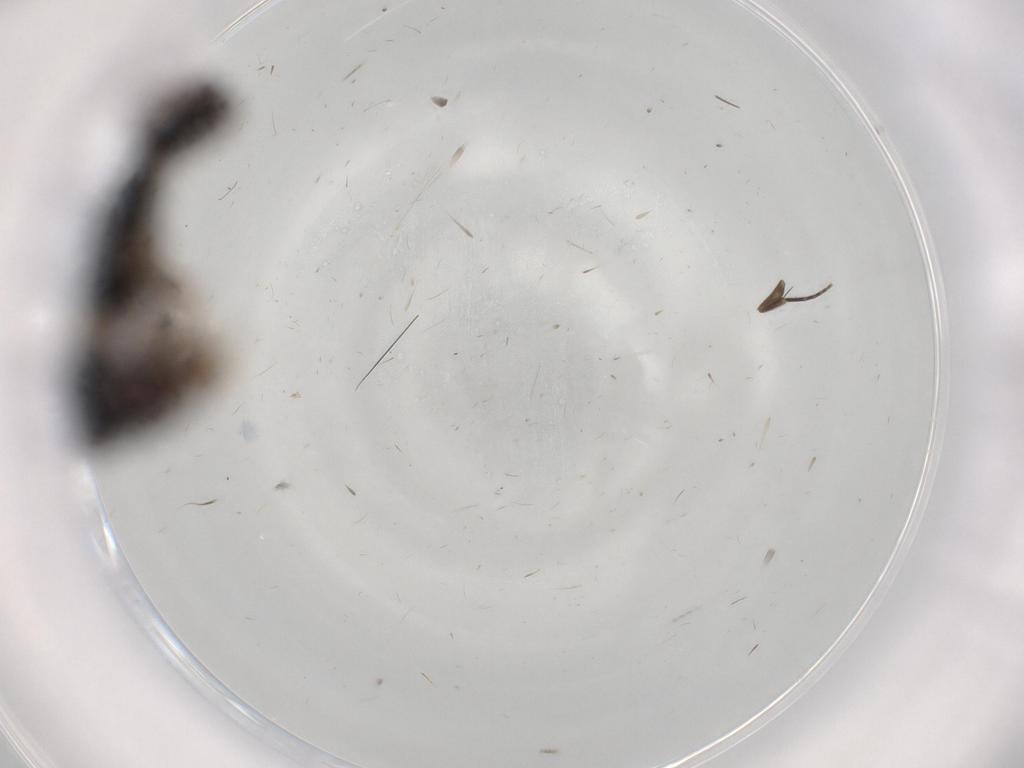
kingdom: Animalia
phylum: Arthropoda
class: Insecta
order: Diptera
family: Cecidomyiidae
